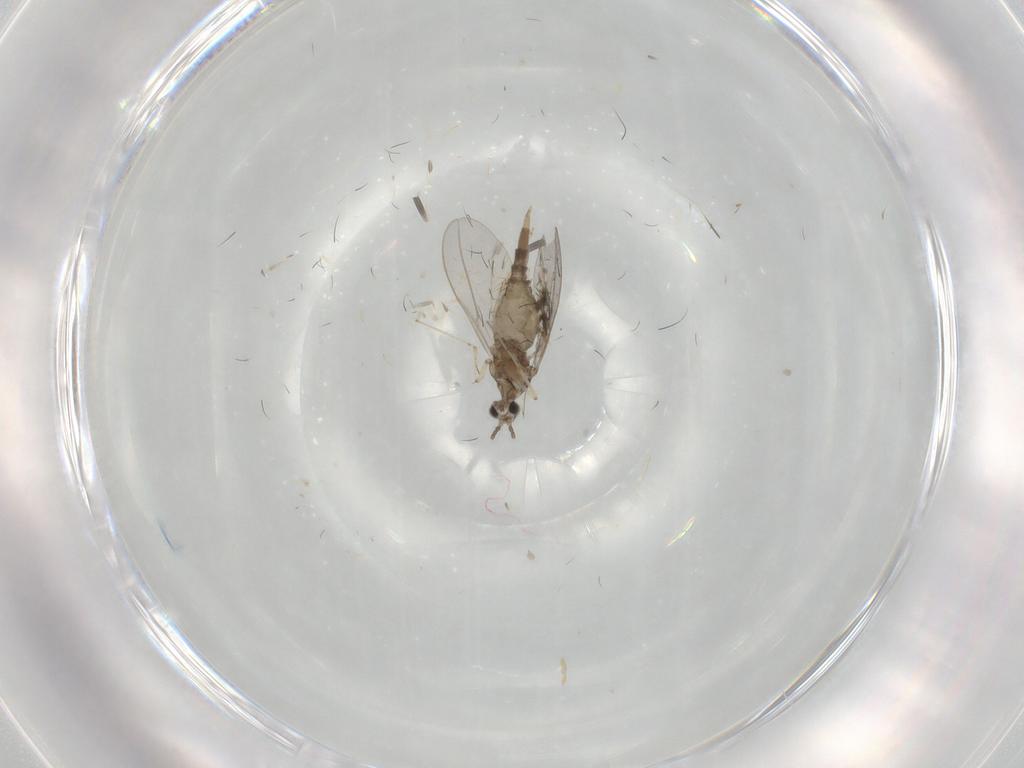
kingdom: Animalia
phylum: Arthropoda
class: Insecta
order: Diptera
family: Cecidomyiidae
